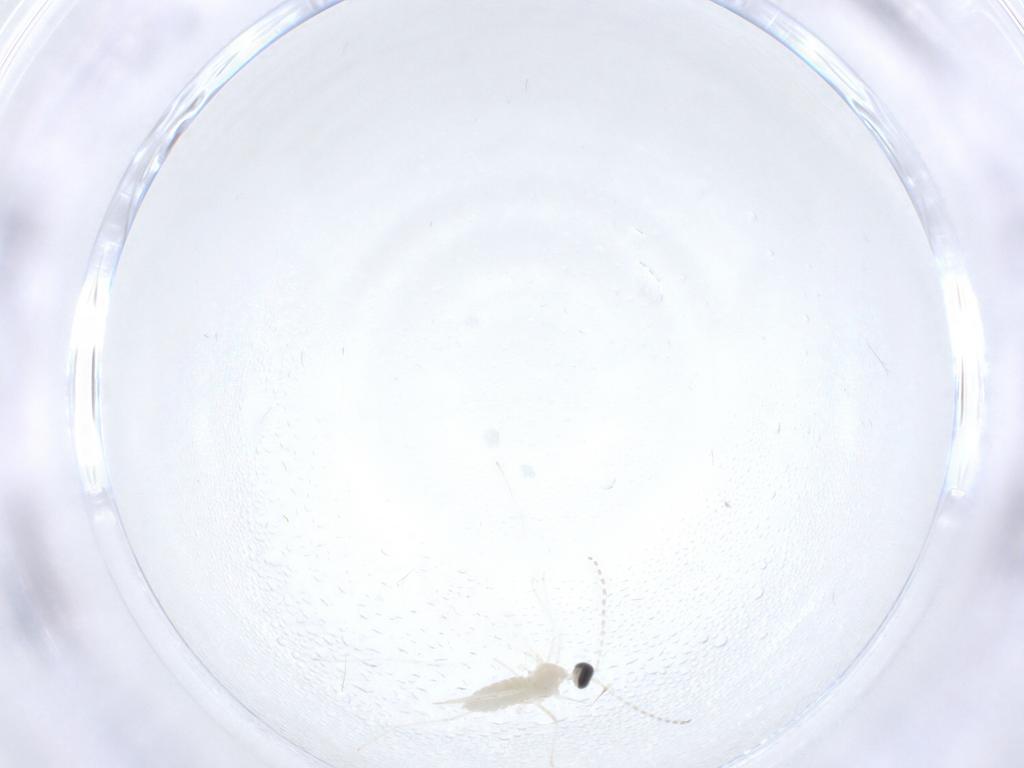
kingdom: Animalia
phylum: Arthropoda
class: Insecta
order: Diptera
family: Cecidomyiidae
